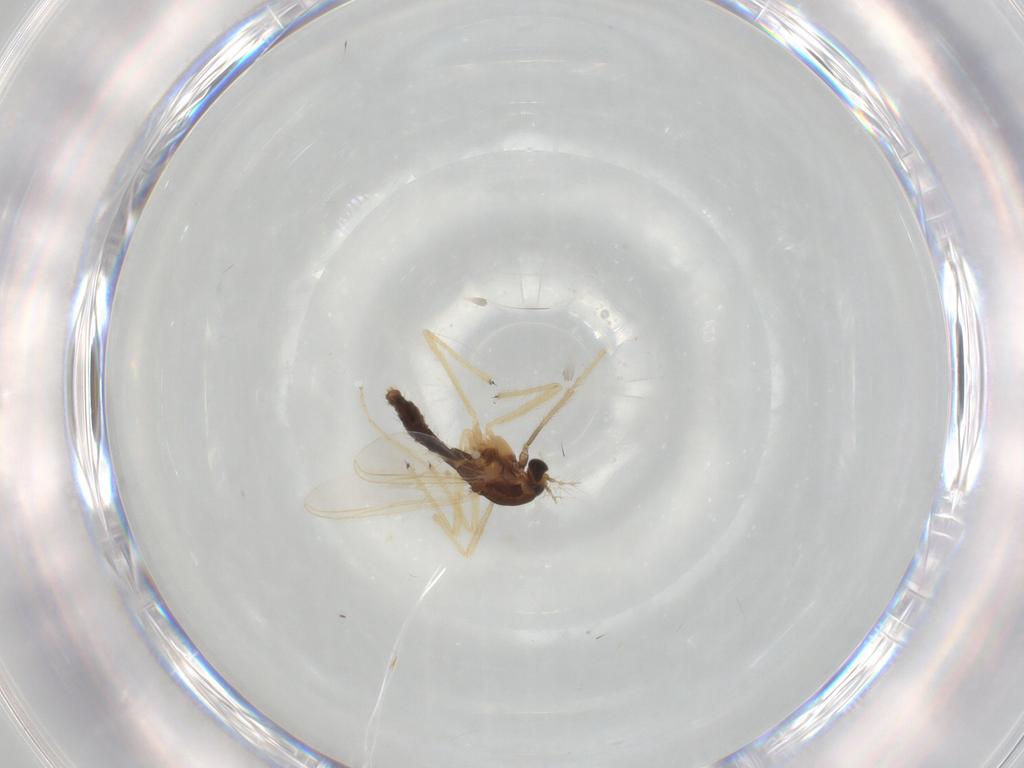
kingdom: Animalia
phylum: Arthropoda
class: Insecta
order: Diptera
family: Chironomidae
